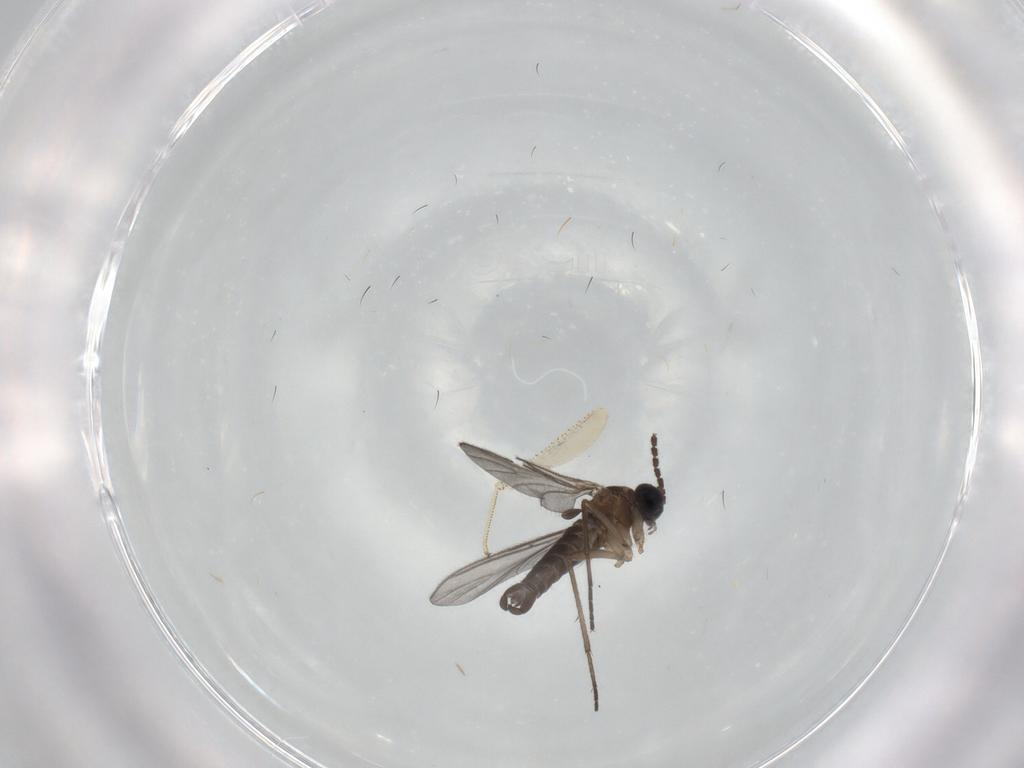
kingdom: Animalia
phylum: Arthropoda
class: Insecta
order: Diptera
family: Sciaridae
